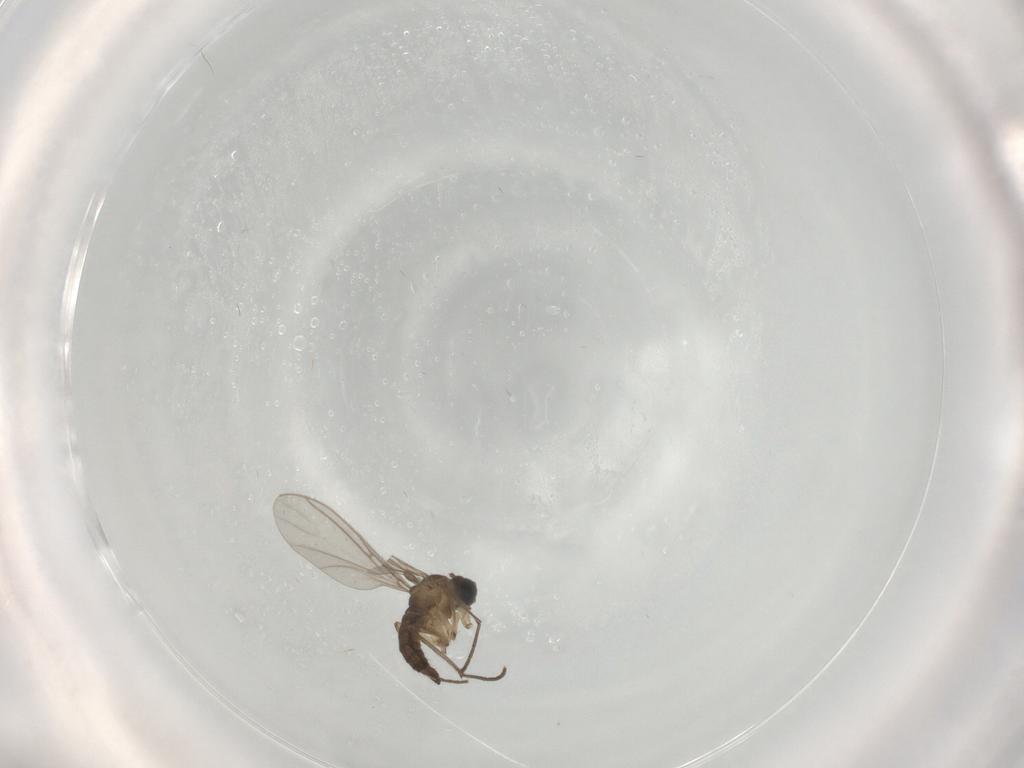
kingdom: Animalia
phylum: Arthropoda
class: Insecta
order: Diptera
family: Sciaridae
